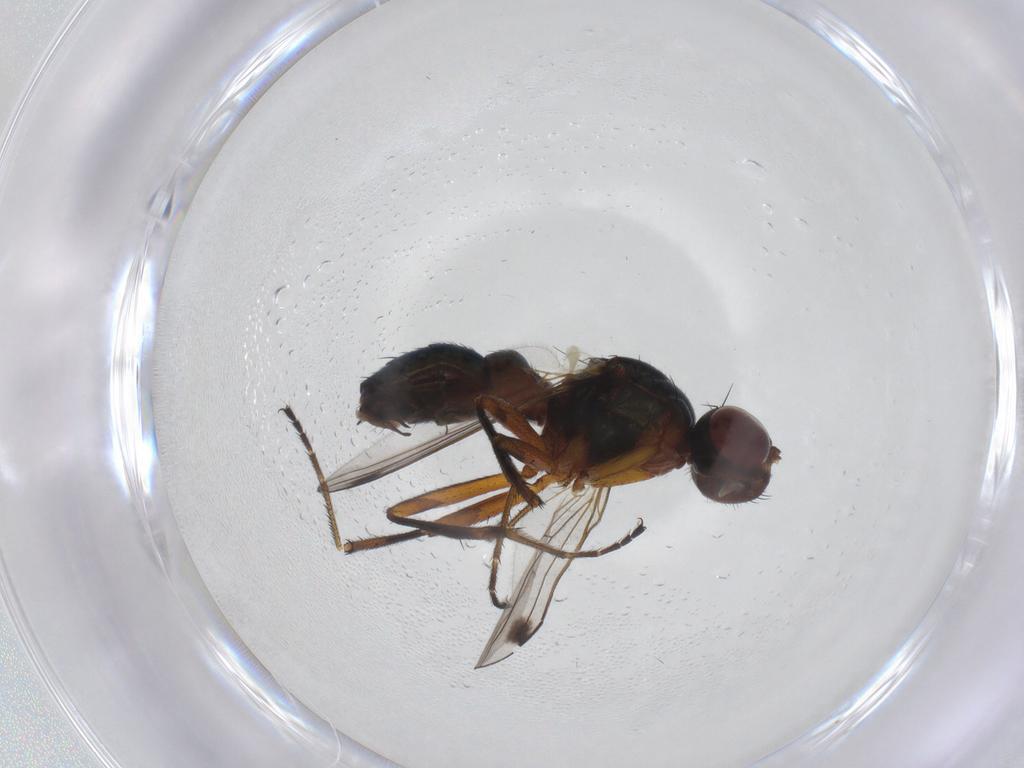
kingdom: Animalia
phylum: Arthropoda
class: Insecta
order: Diptera
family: Sepsidae
